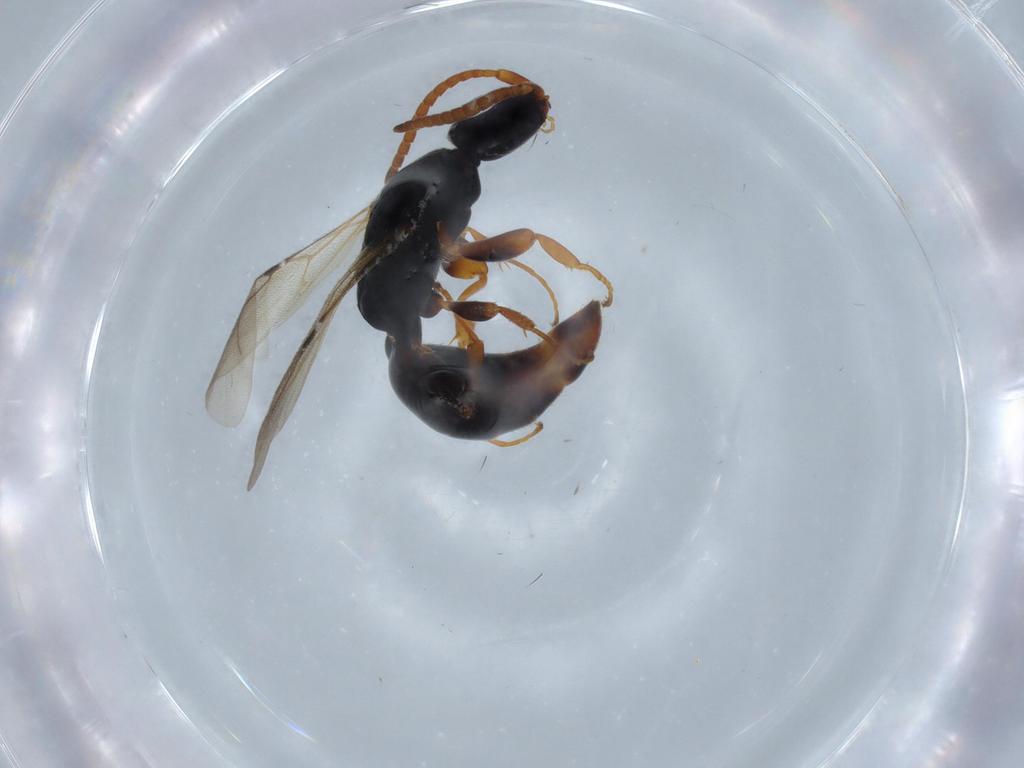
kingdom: Animalia
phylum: Arthropoda
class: Insecta
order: Hymenoptera
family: Bethylidae
